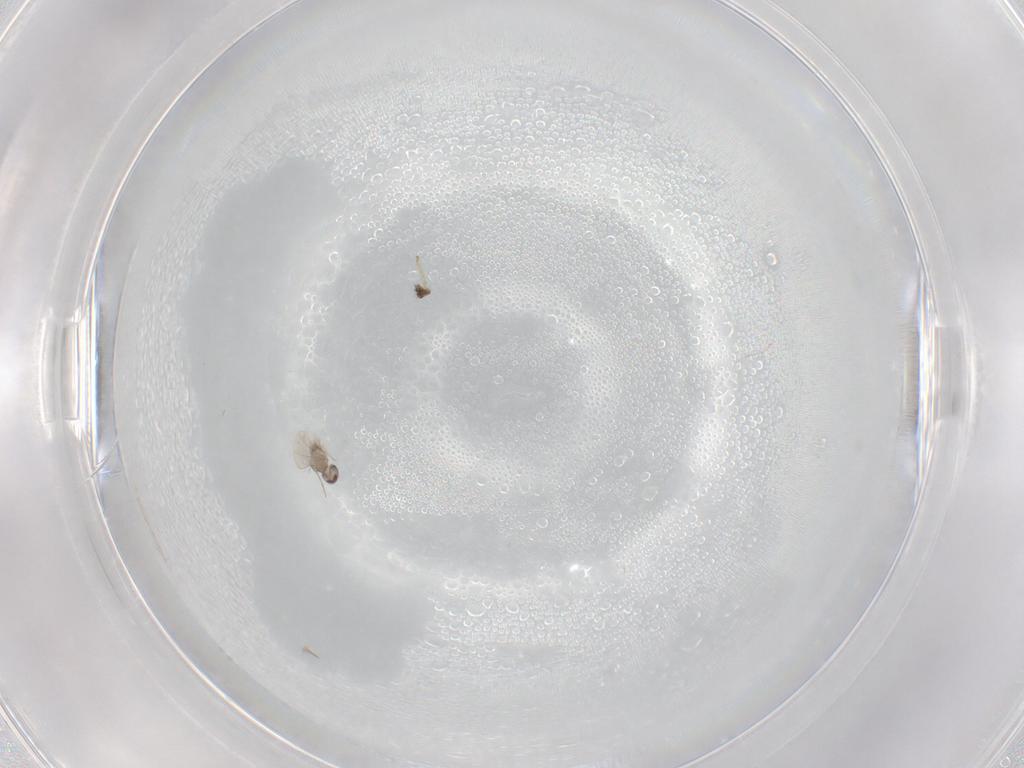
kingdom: Animalia
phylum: Arthropoda
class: Insecta
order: Diptera
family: Cecidomyiidae
